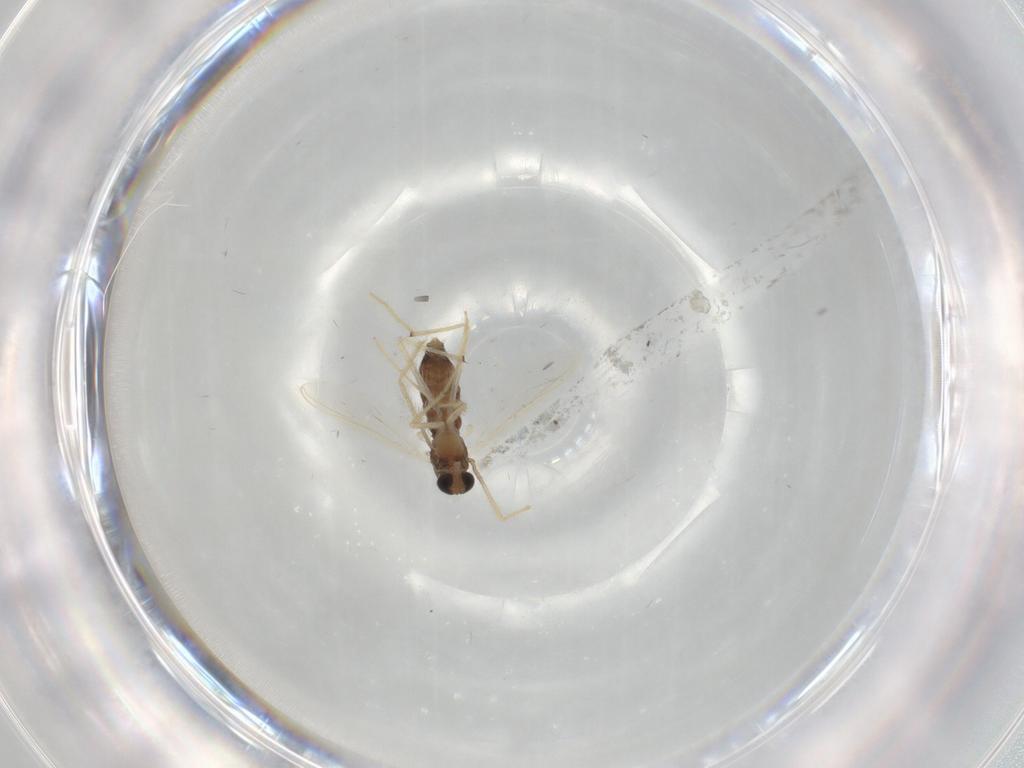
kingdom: Animalia
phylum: Arthropoda
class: Insecta
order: Diptera
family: Chironomidae
